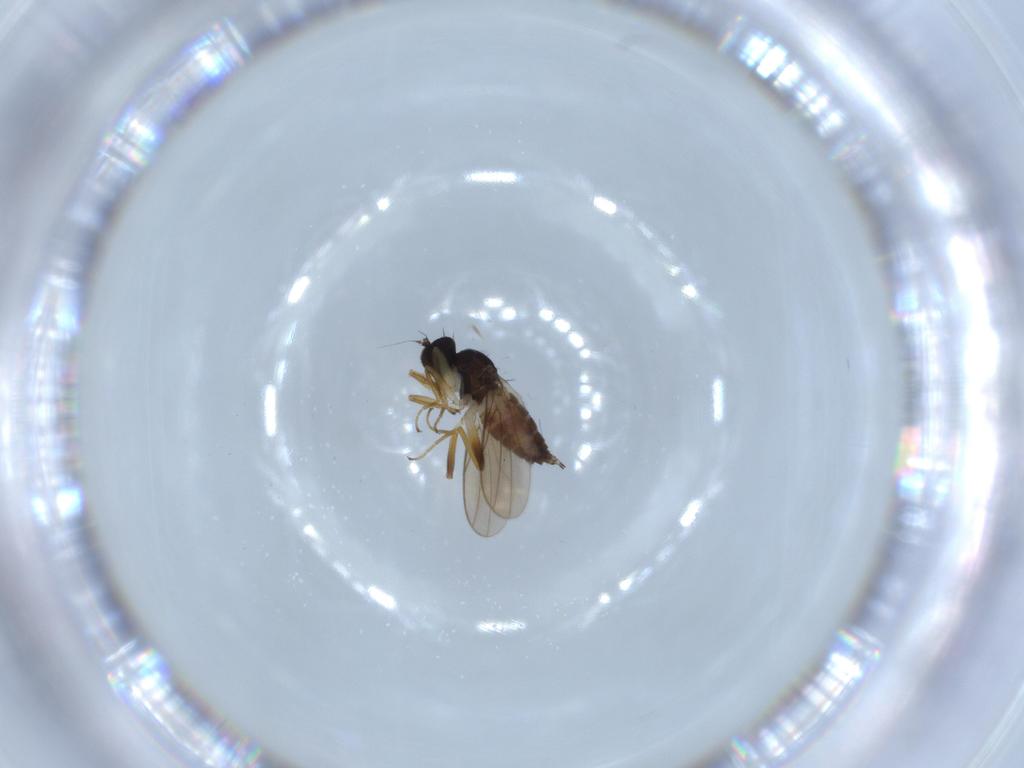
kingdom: Animalia
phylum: Arthropoda
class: Insecta
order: Diptera
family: Hybotidae
